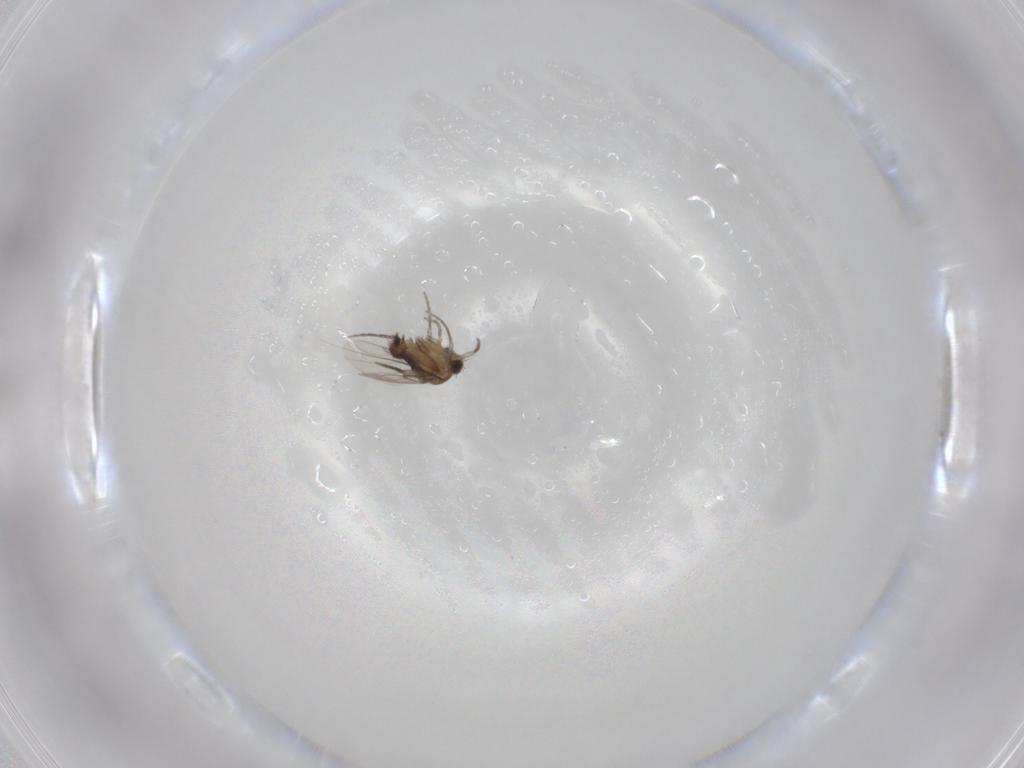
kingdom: Animalia
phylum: Arthropoda
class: Insecta
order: Diptera
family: Phoridae
